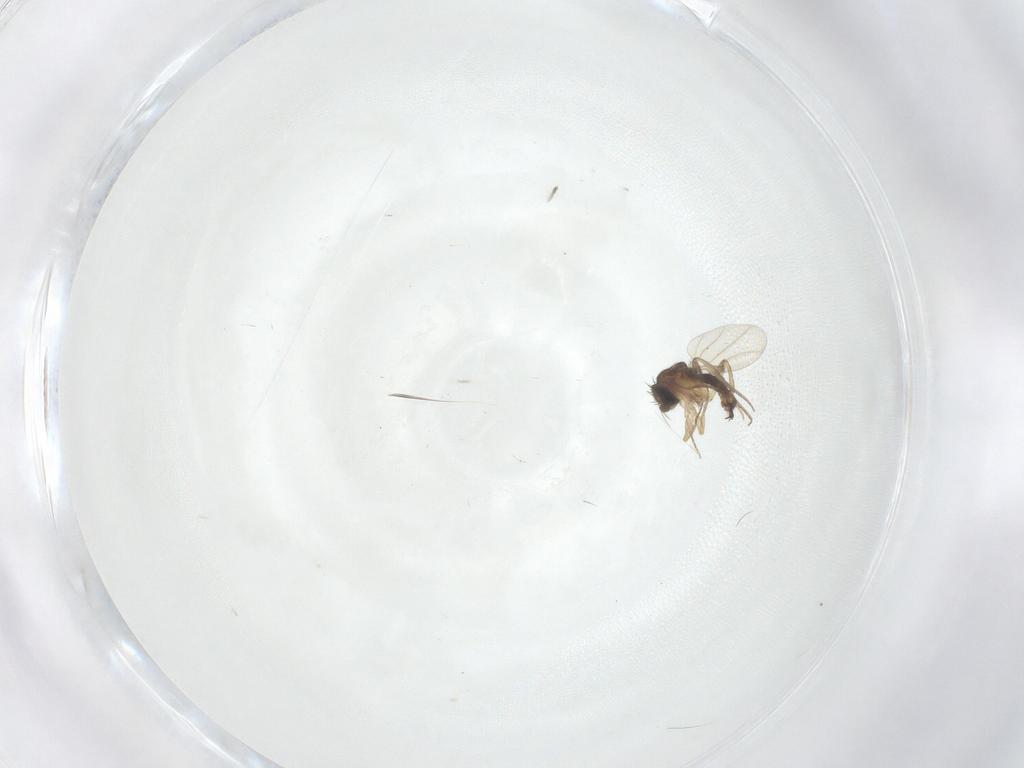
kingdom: Animalia
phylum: Arthropoda
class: Insecta
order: Diptera
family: Phoridae
